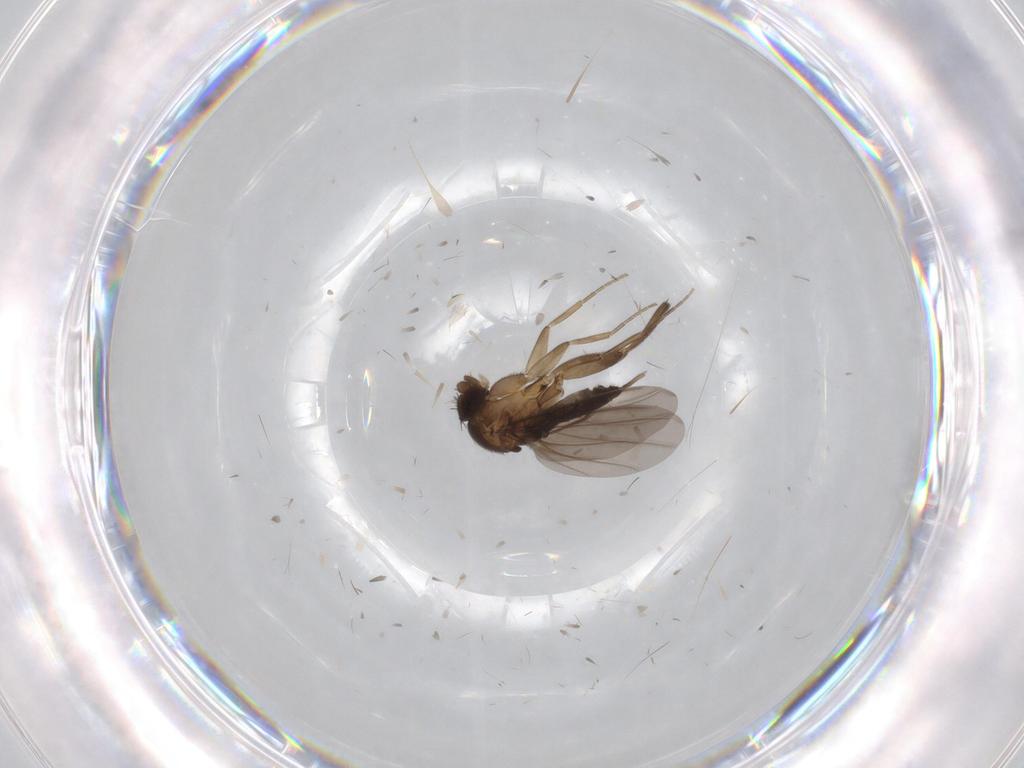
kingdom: Animalia
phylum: Arthropoda
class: Insecta
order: Diptera
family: Phoridae
